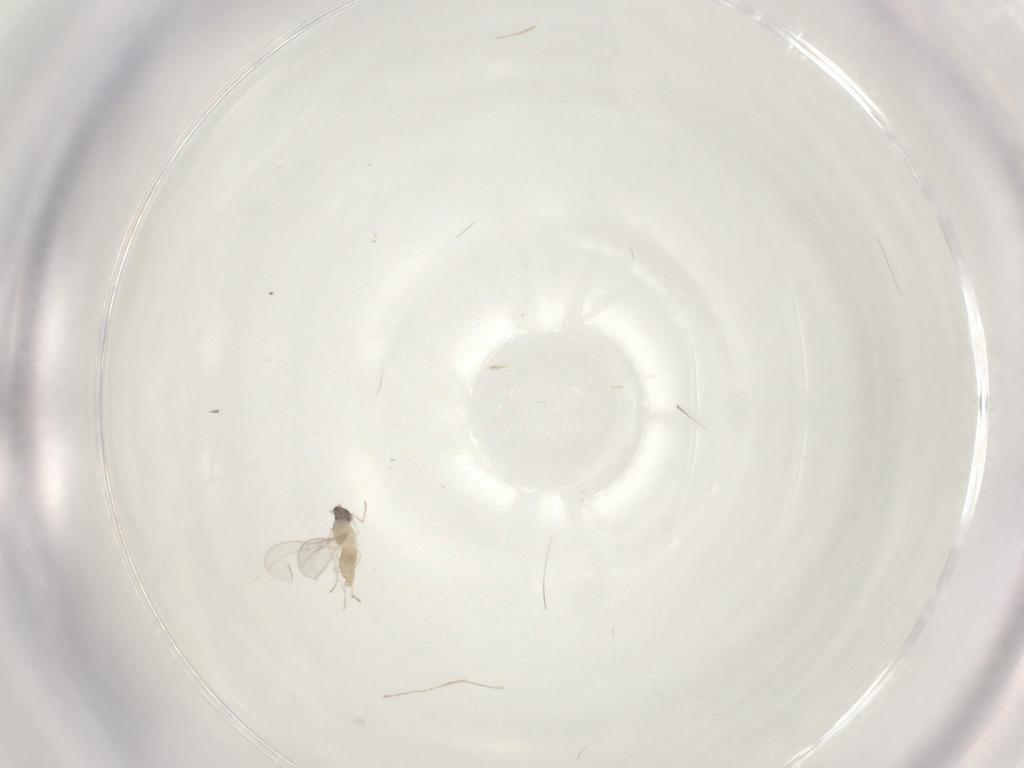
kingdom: Animalia
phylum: Arthropoda
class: Insecta
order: Diptera
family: Cecidomyiidae
